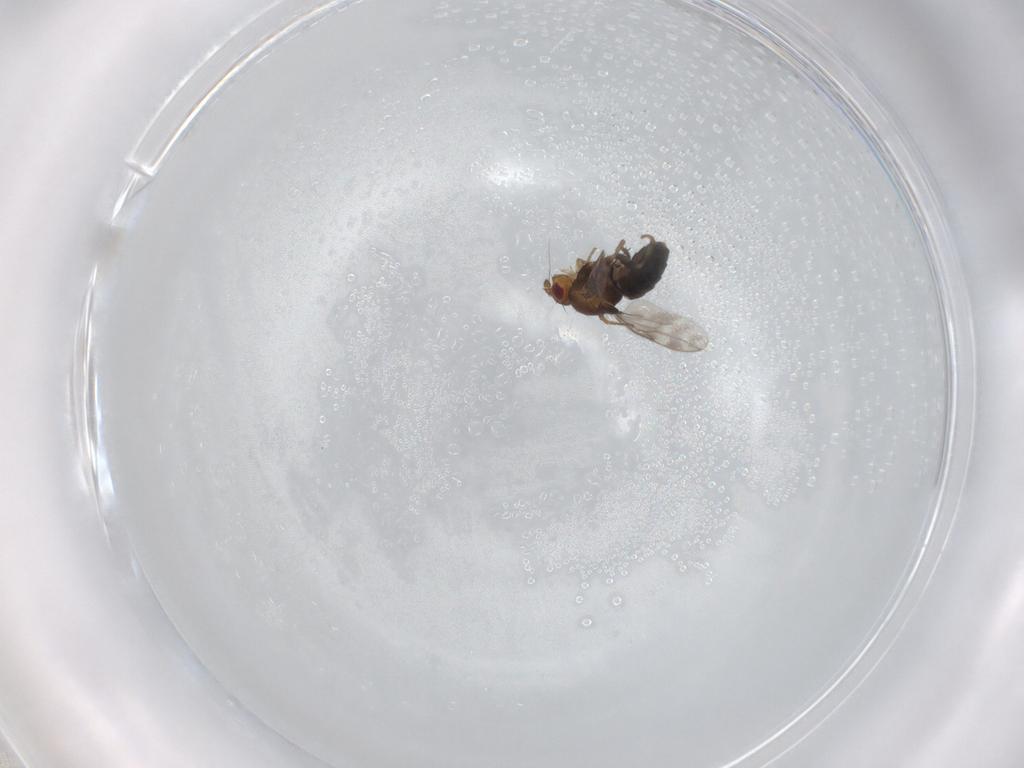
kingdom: Animalia
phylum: Arthropoda
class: Insecta
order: Diptera
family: Sphaeroceridae
